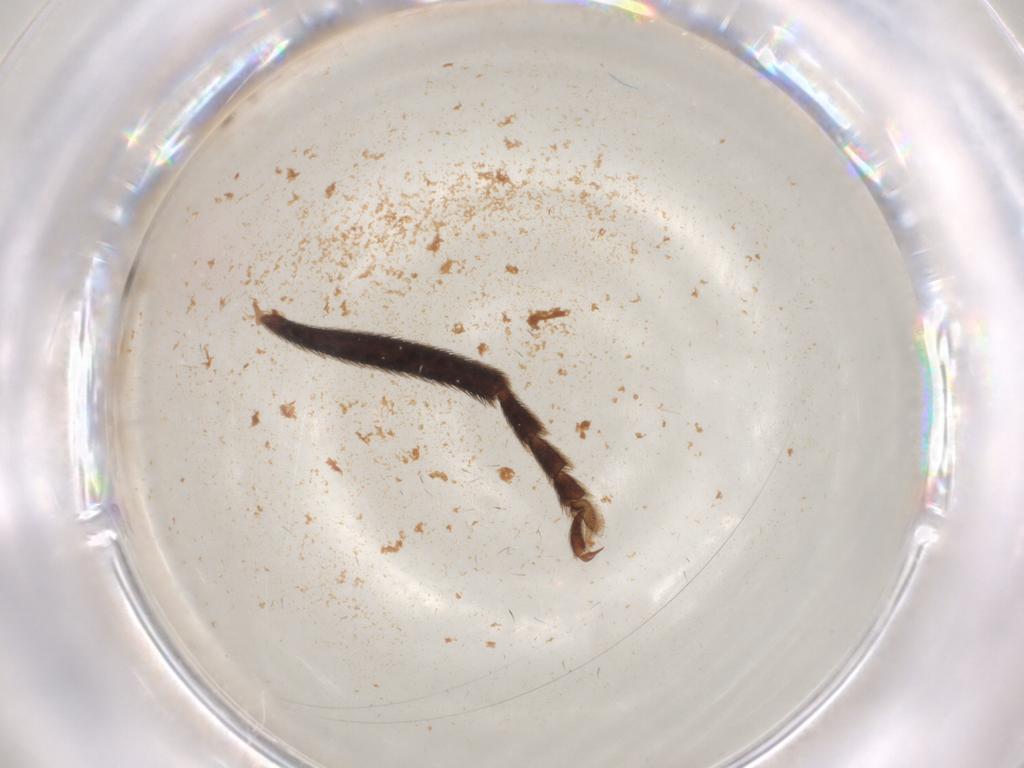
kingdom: Animalia
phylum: Arthropoda
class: Insecta
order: Coleoptera
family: Lampyridae
